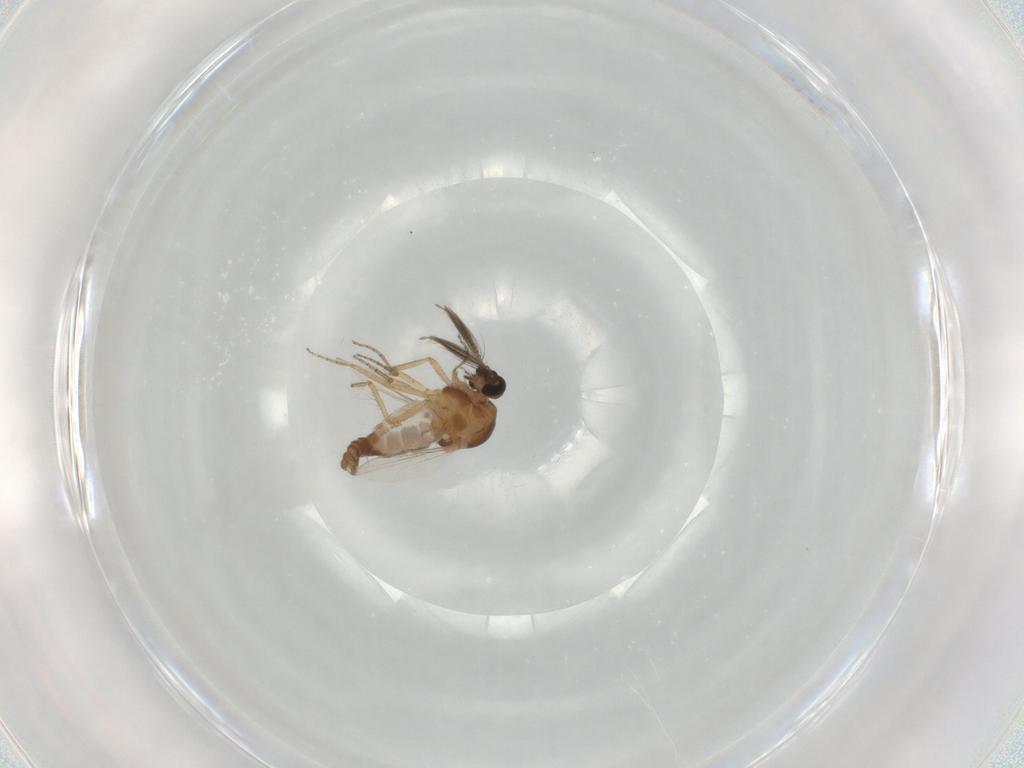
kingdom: Animalia
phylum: Arthropoda
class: Insecta
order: Diptera
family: Ceratopogonidae
